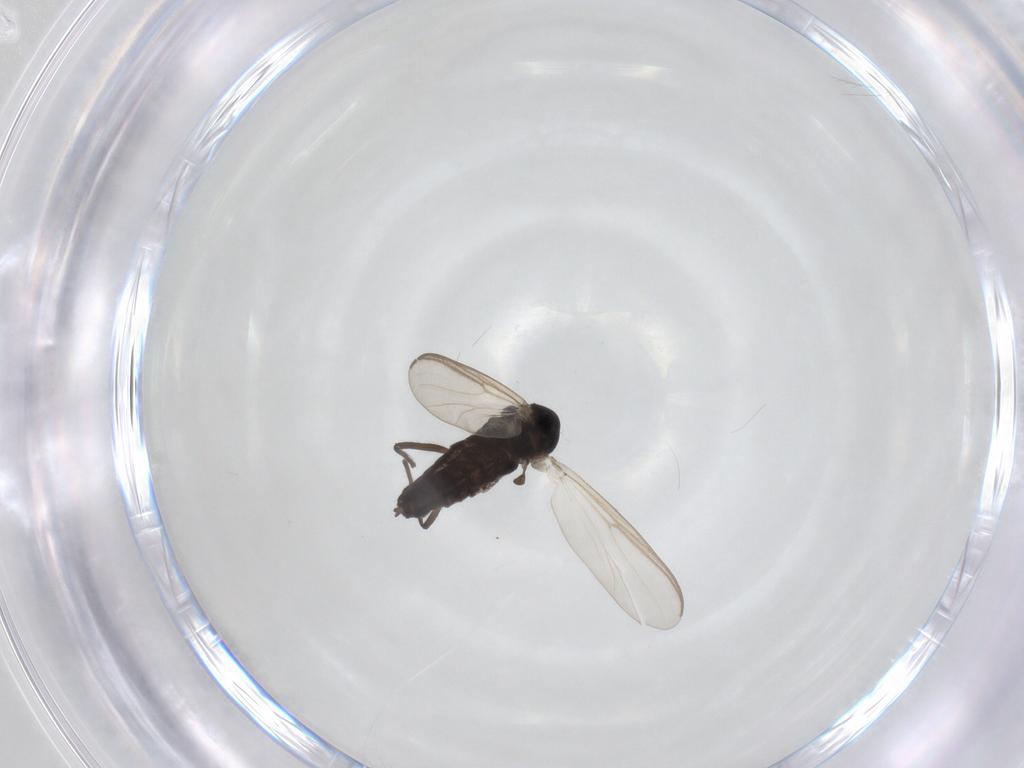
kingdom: Animalia
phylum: Arthropoda
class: Insecta
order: Diptera
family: Chironomidae
